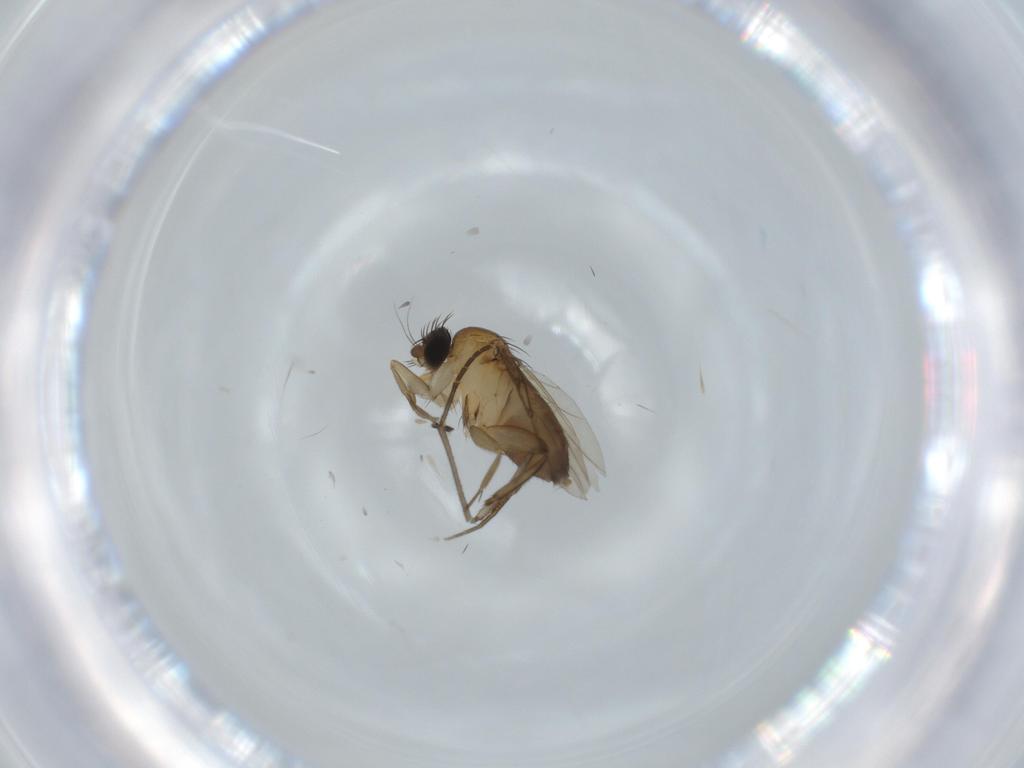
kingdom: Animalia
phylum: Arthropoda
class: Insecta
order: Diptera
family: Phoridae
